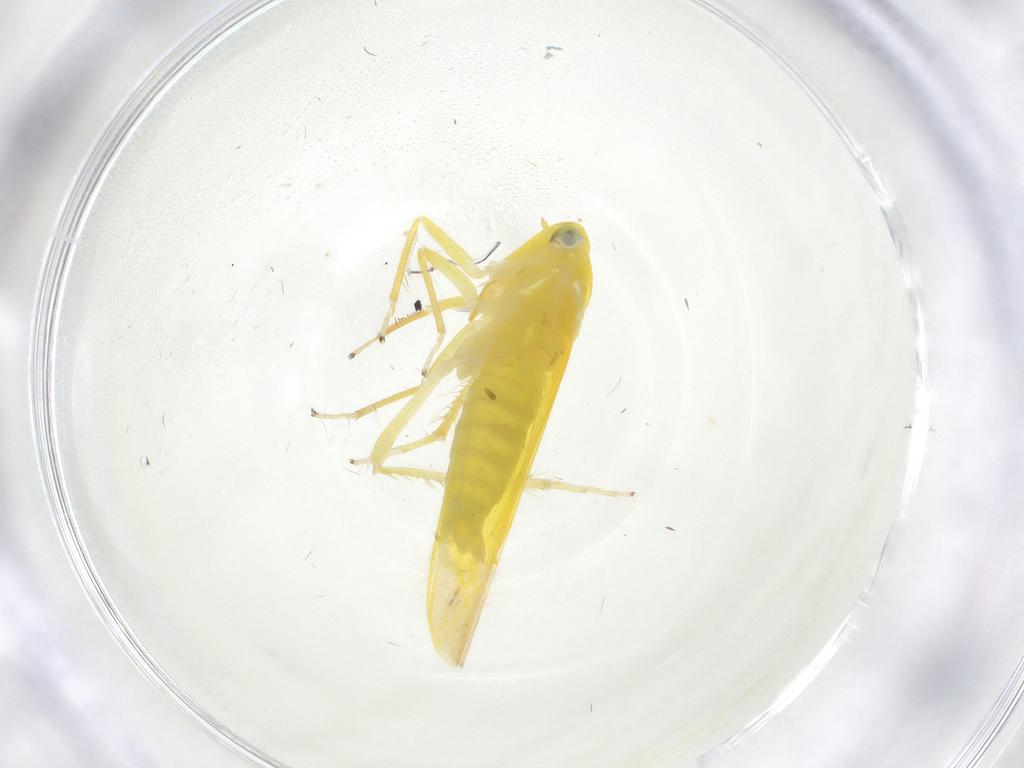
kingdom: Animalia
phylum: Arthropoda
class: Insecta
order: Hemiptera
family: Cicadellidae
